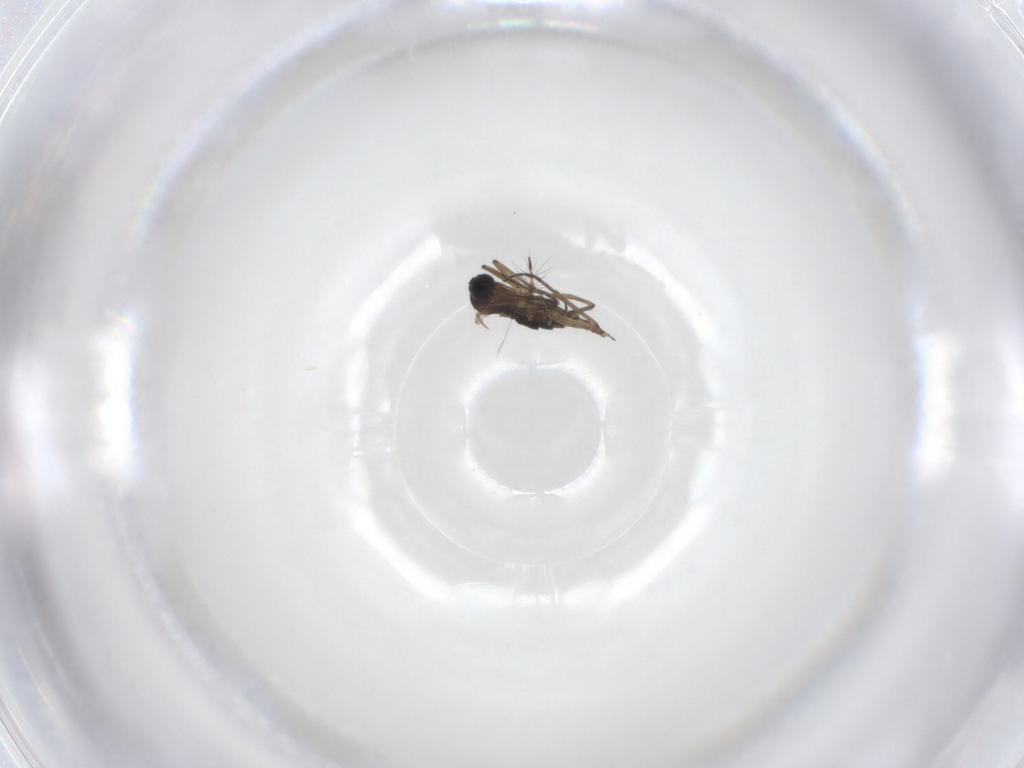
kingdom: Animalia
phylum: Arthropoda
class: Insecta
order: Diptera
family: Sciaridae
